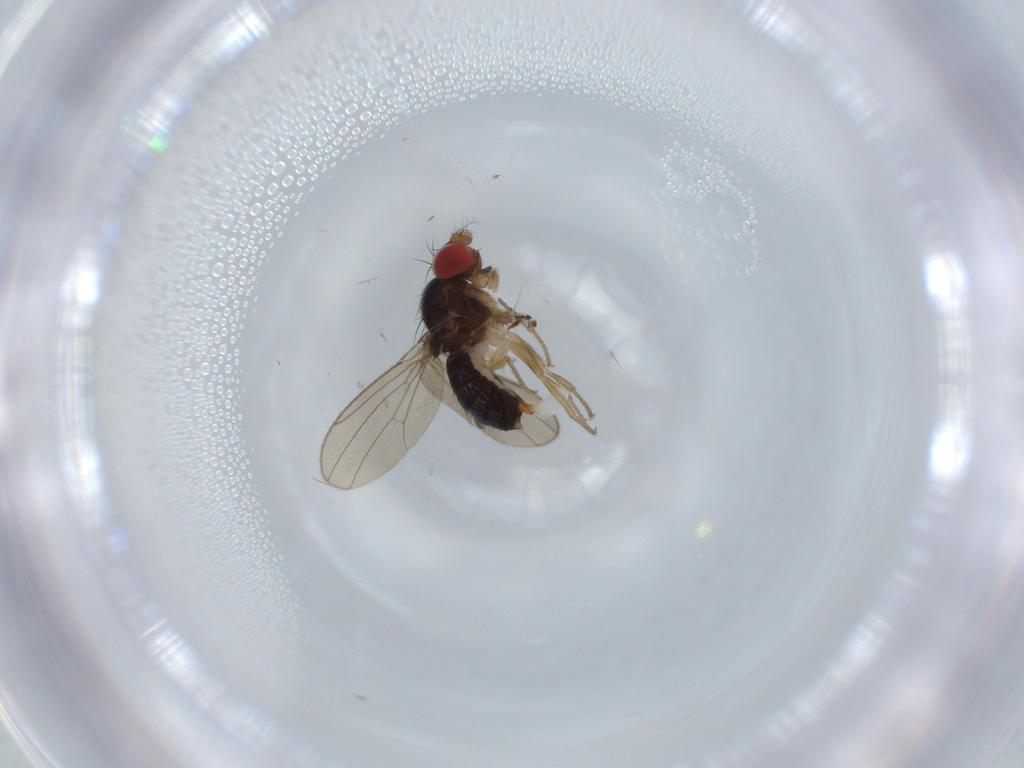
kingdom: Animalia
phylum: Arthropoda
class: Insecta
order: Diptera
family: Drosophilidae
